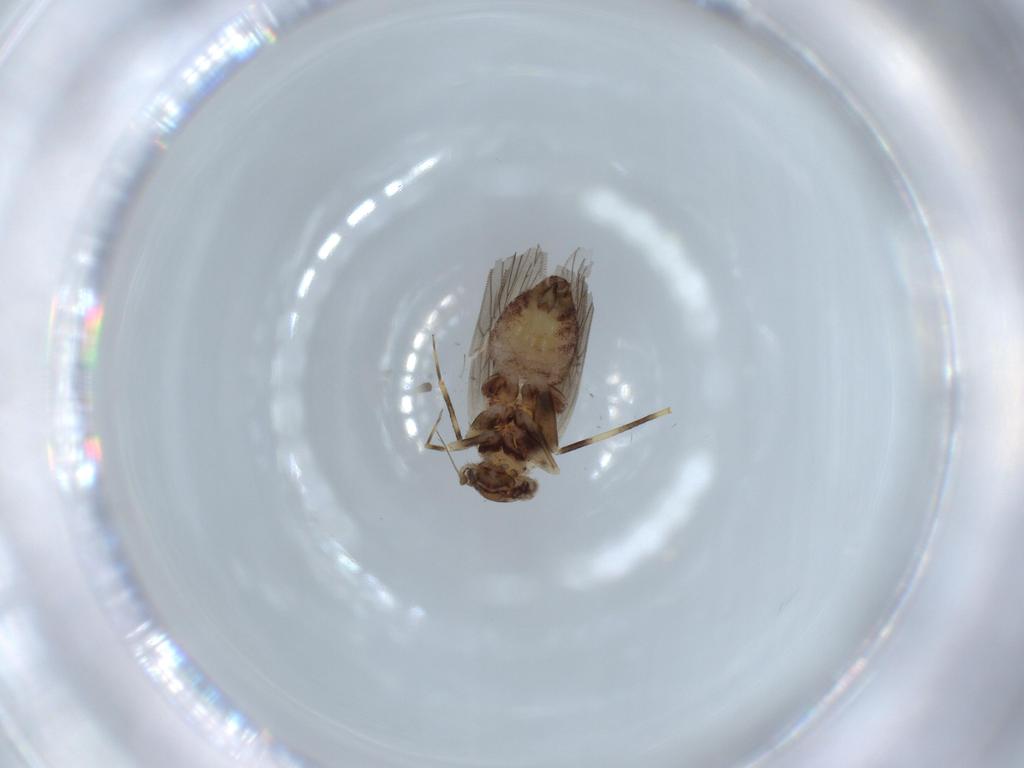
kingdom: Animalia
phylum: Arthropoda
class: Insecta
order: Psocodea
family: Lepidopsocidae
